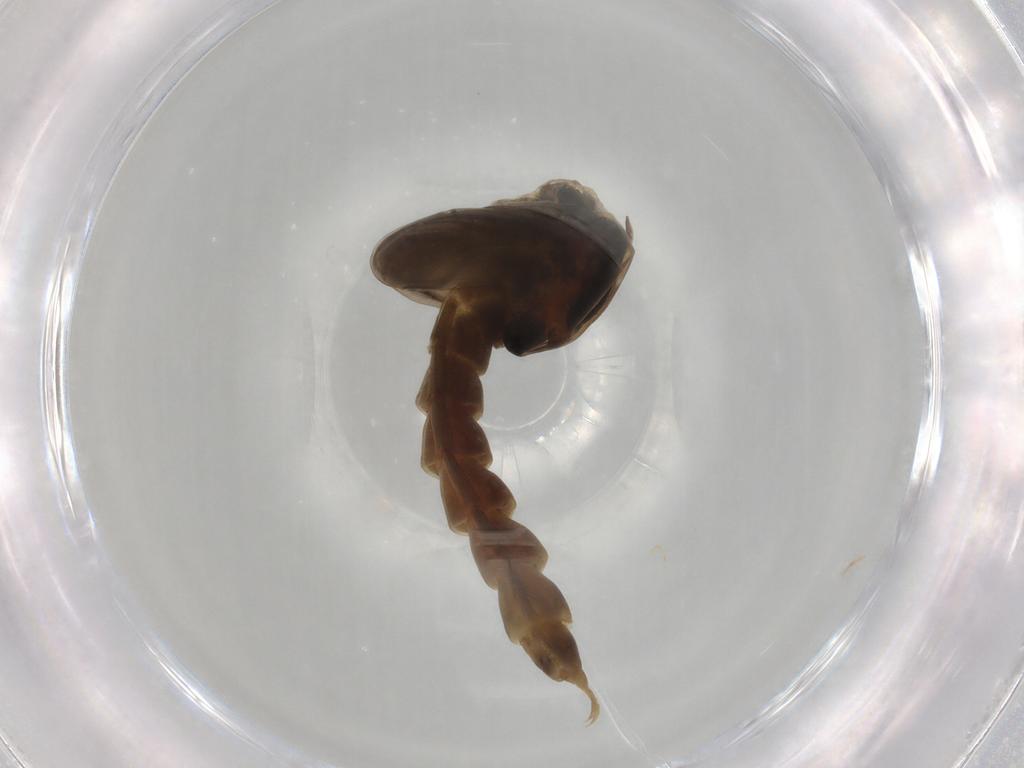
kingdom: Animalia
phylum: Arthropoda
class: Insecta
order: Diptera
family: Chironomidae
